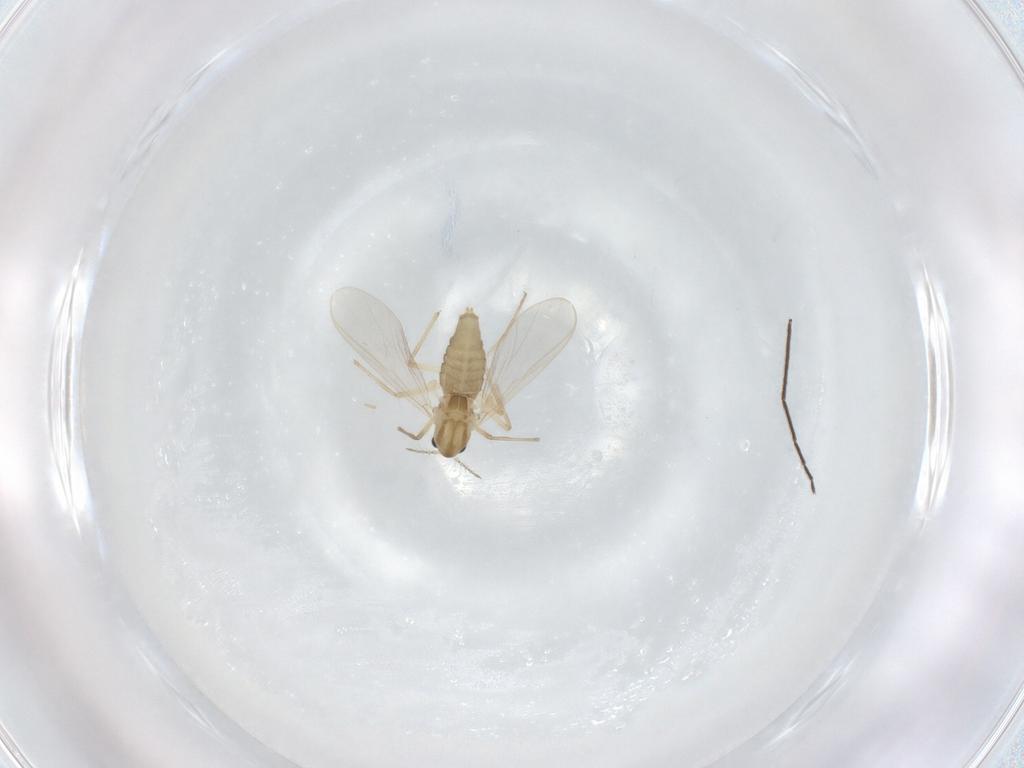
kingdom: Animalia
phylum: Arthropoda
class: Insecta
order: Diptera
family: Chironomidae
